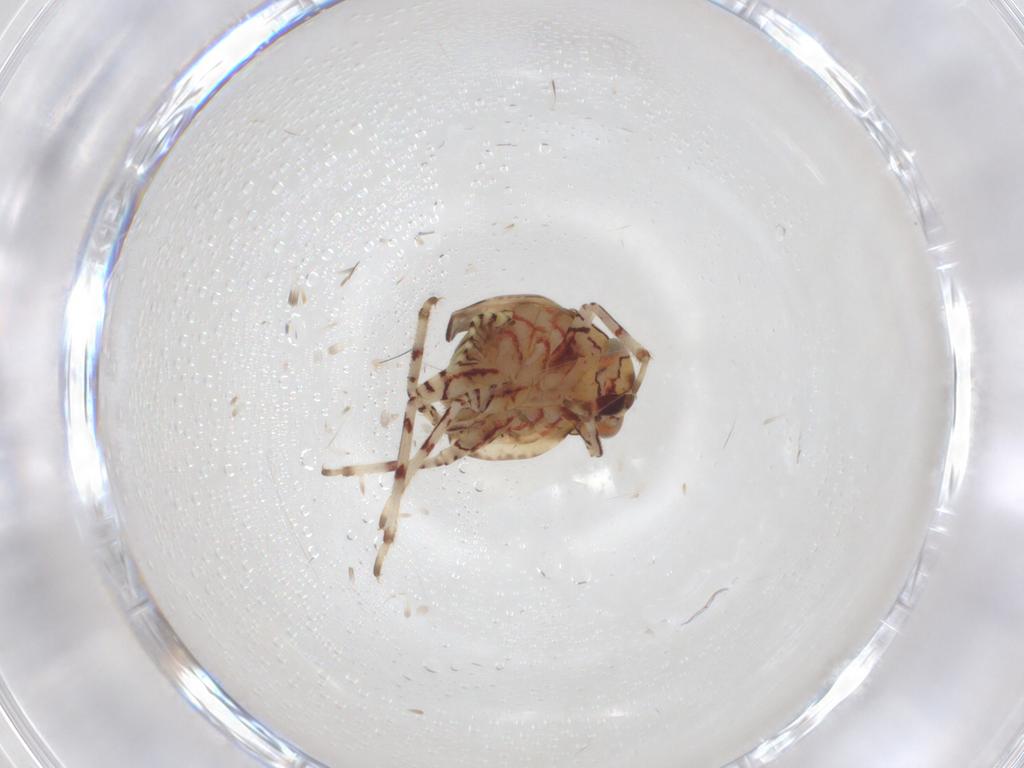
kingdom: Animalia
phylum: Arthropoda
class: Insecta
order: Hemiptera
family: Miridae
